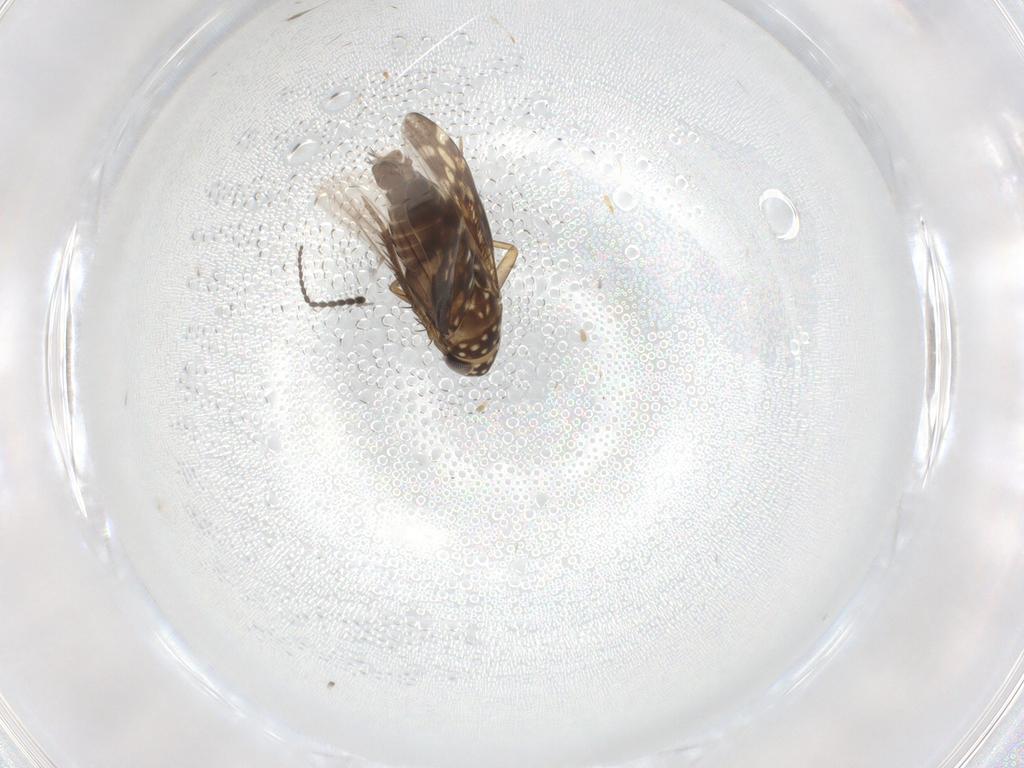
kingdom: Animalia
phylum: Arthropoda
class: Insecta
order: Hemiptera
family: Cicadellidae
